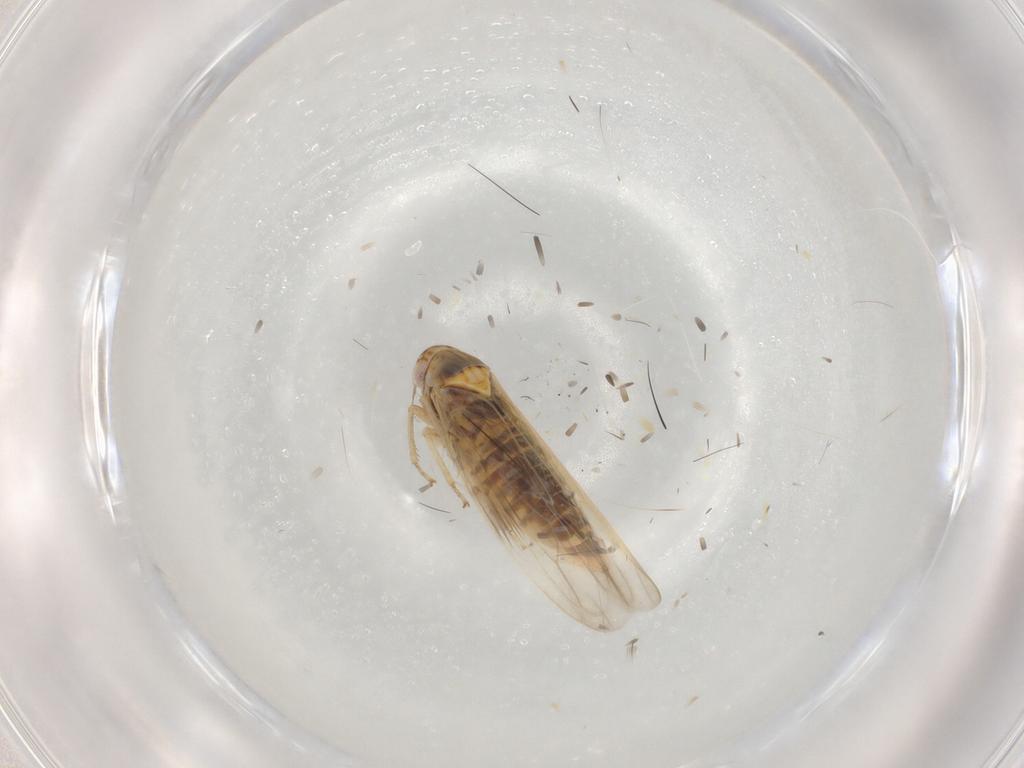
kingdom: Animalia
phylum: Arthropoda
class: Insecta
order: Hemiptera
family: Cicadellidae
